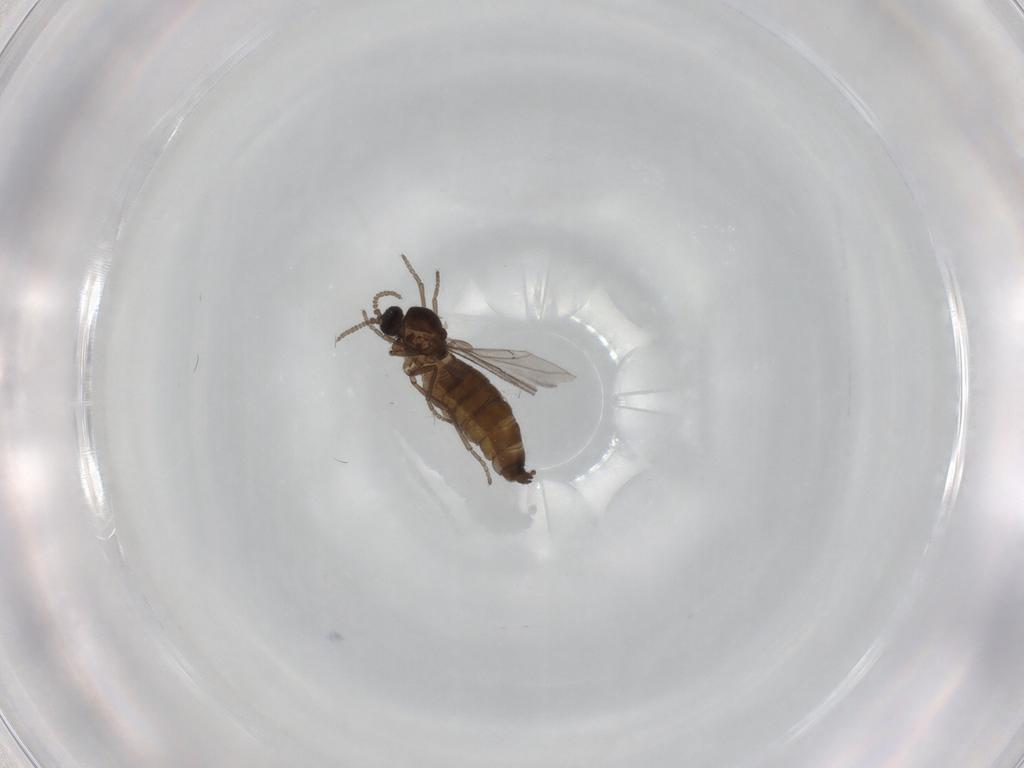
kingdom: Animalia
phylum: Arthropoda
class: Insecta
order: Diptera
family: Sciaridae
